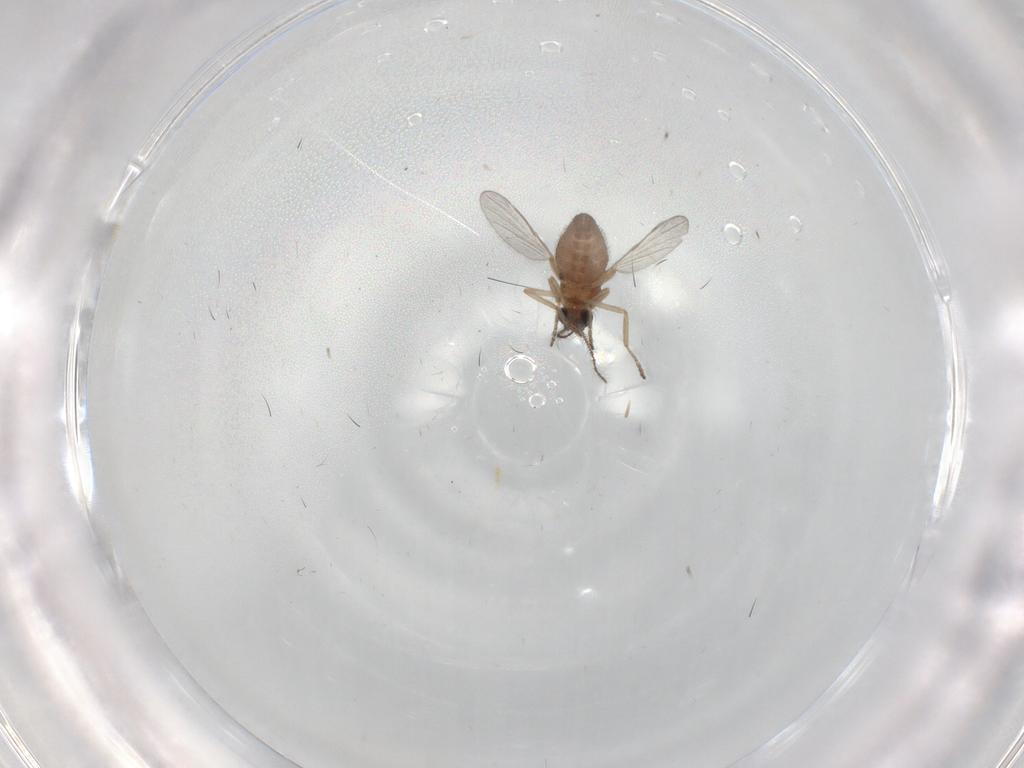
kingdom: Animalia
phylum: Arthropoda
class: Insecta
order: Diptera
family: Ceratopogonidae
